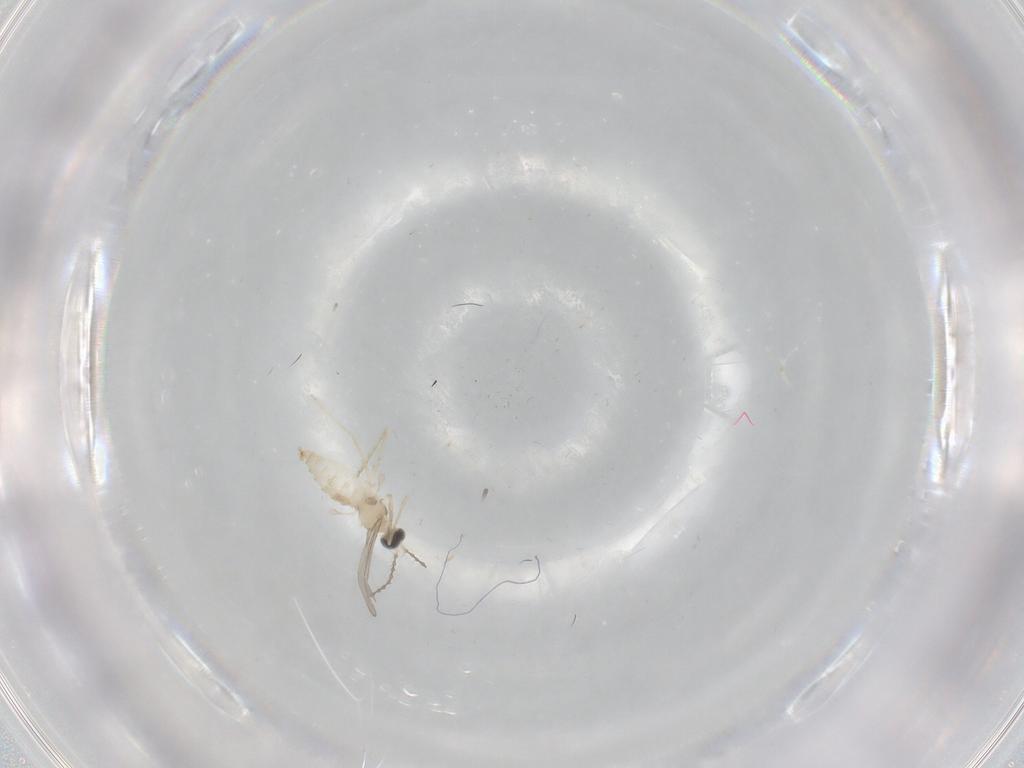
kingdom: Animalia
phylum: Arthropoda
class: Insecta
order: Diptera
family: Cecidomyiidae
